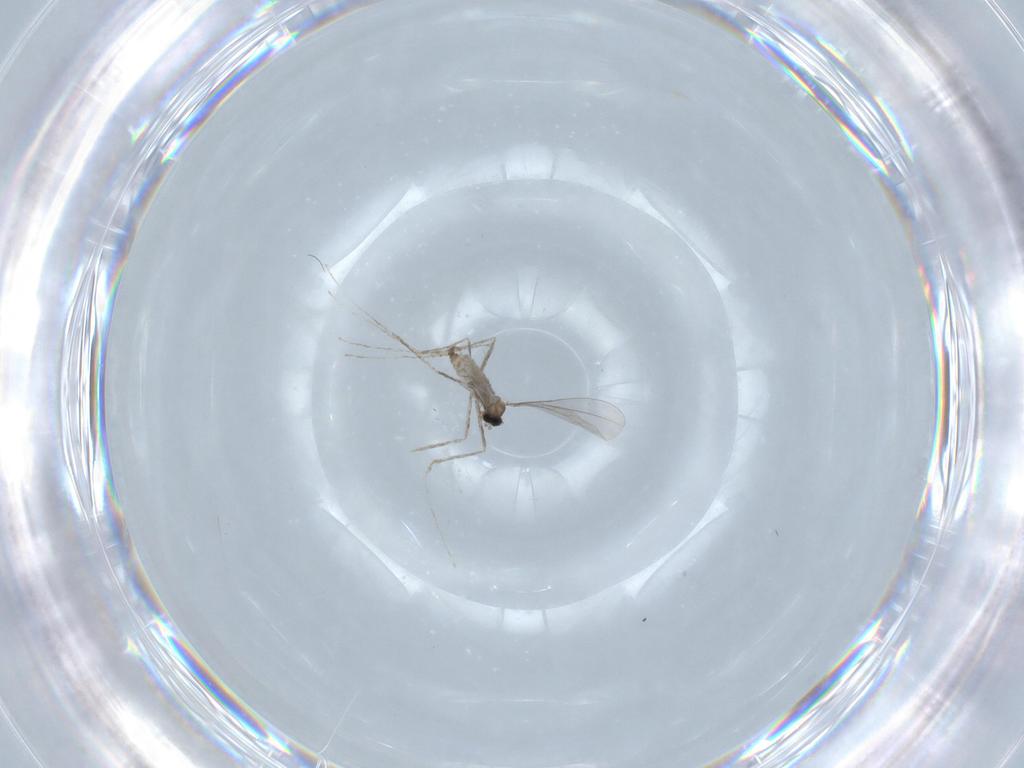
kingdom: Animalia
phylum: Arthropoda
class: Insecta
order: Diptera
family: Cecidomyiidae
